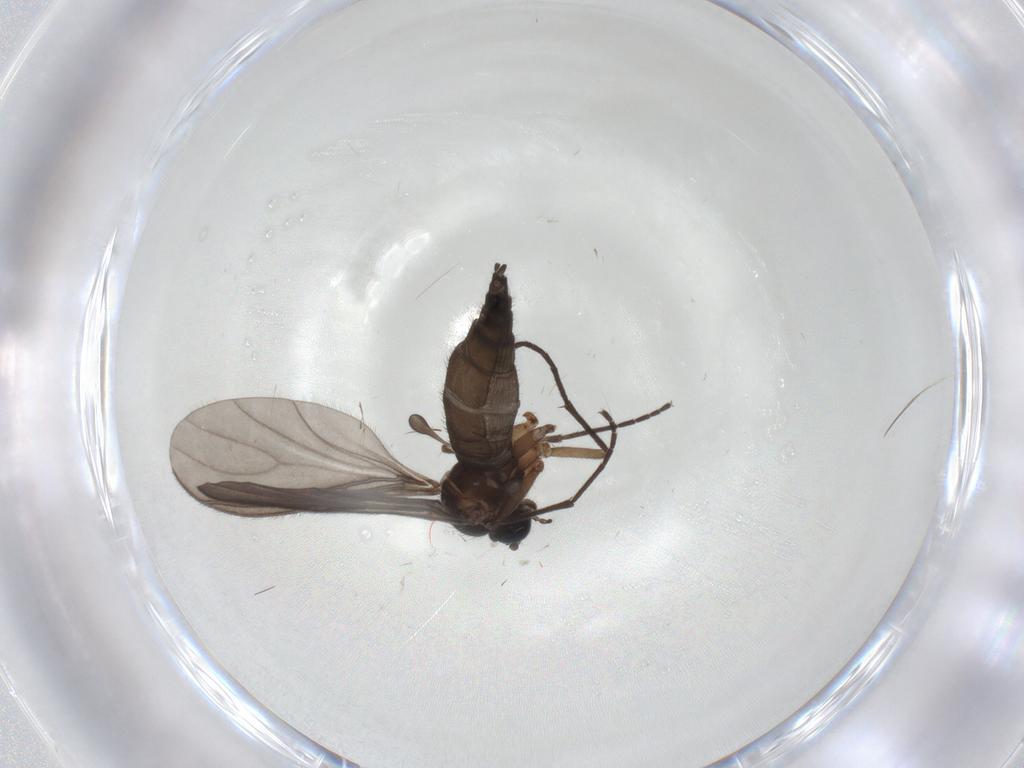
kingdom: Animalia
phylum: Arthropoda
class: Insecta
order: Diptera
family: Sciaridae
